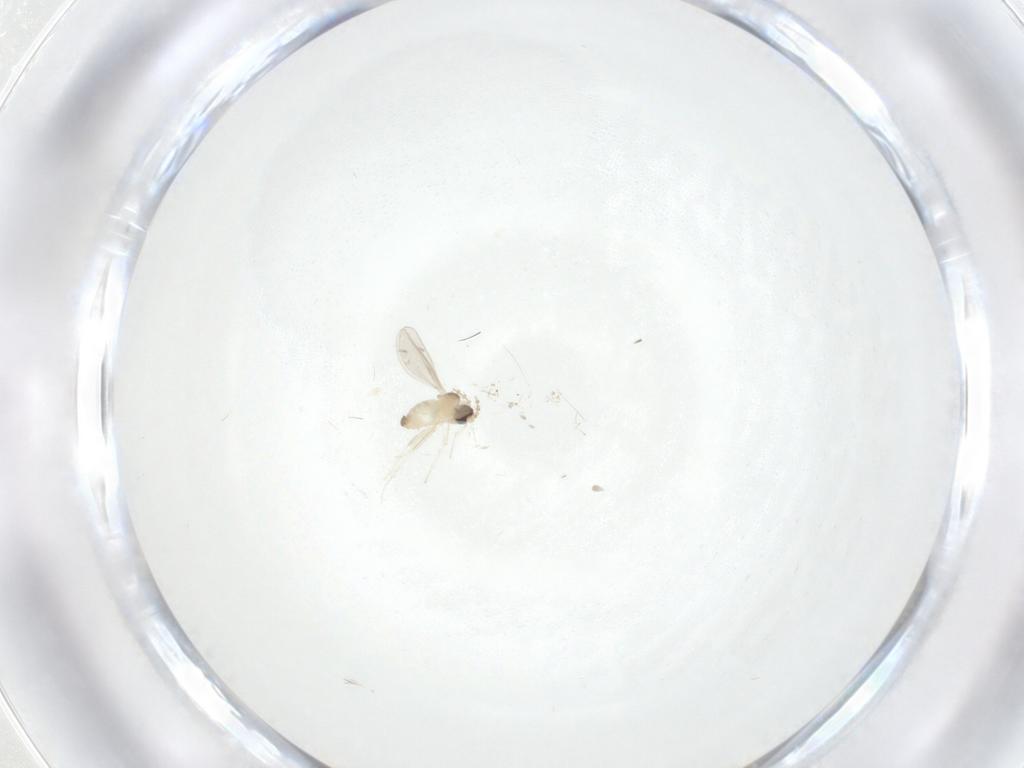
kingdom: Animalia
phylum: Arthropoda
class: Insecta
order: Diptera
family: Cecidomyiidae
